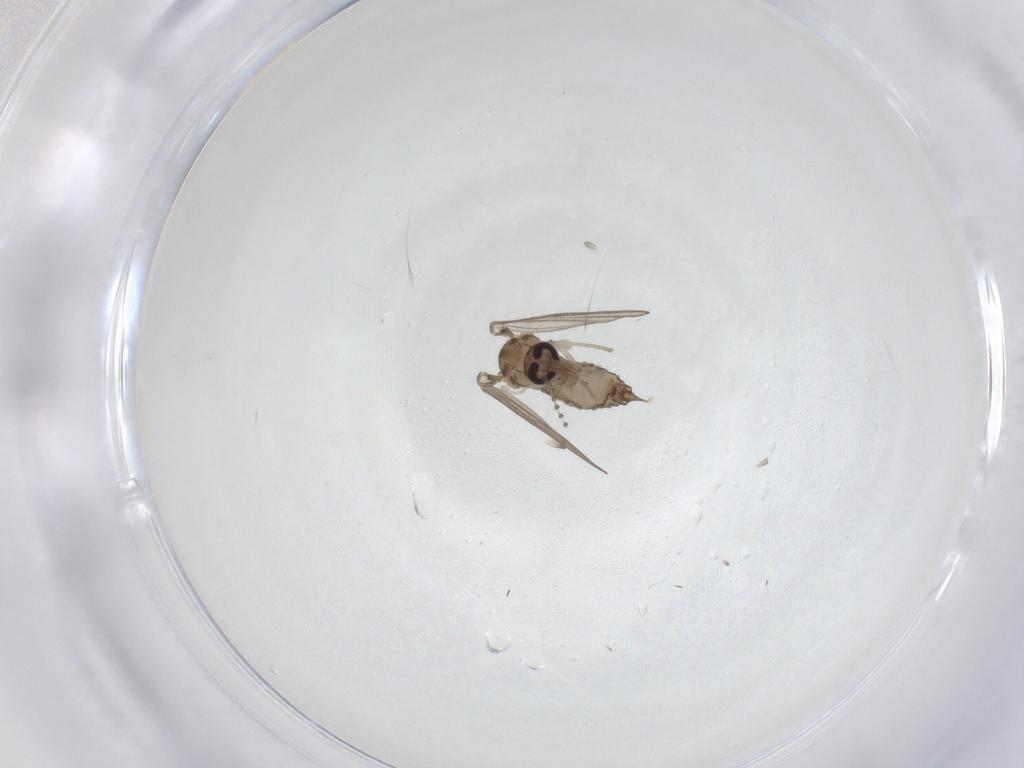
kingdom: Animalia
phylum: Arthropoda
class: Insecta
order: Diptera
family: Psychodidae
